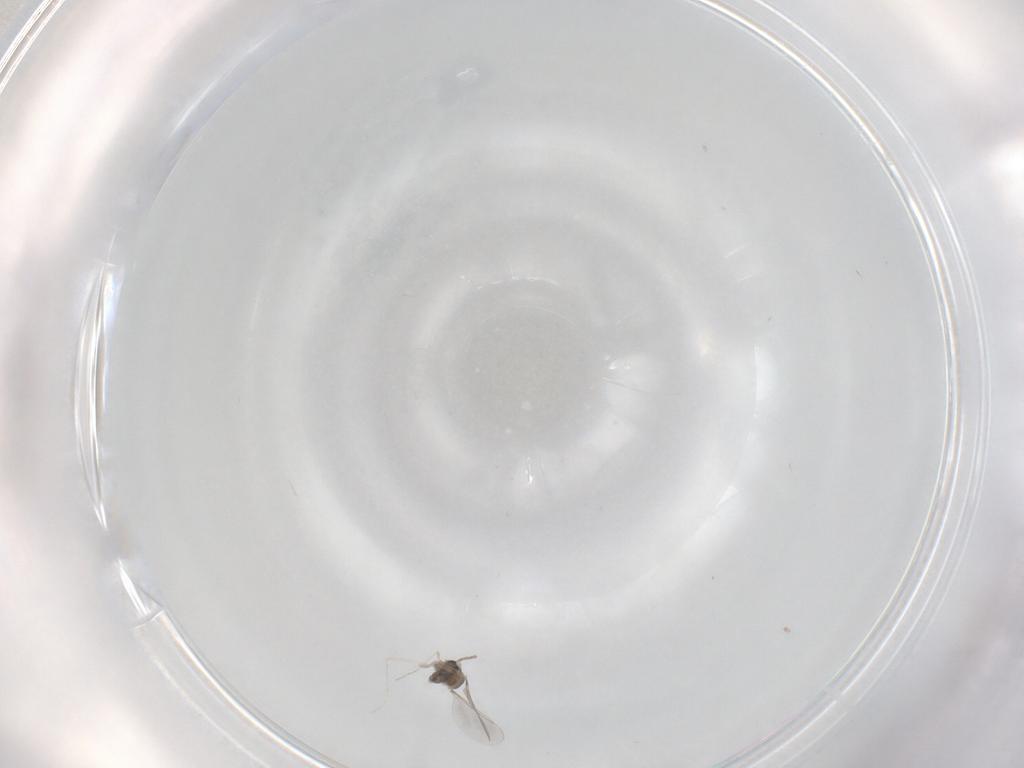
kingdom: Animalia
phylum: Arthropoda
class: Insecta
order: Diptera
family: Cecidomyiidae
